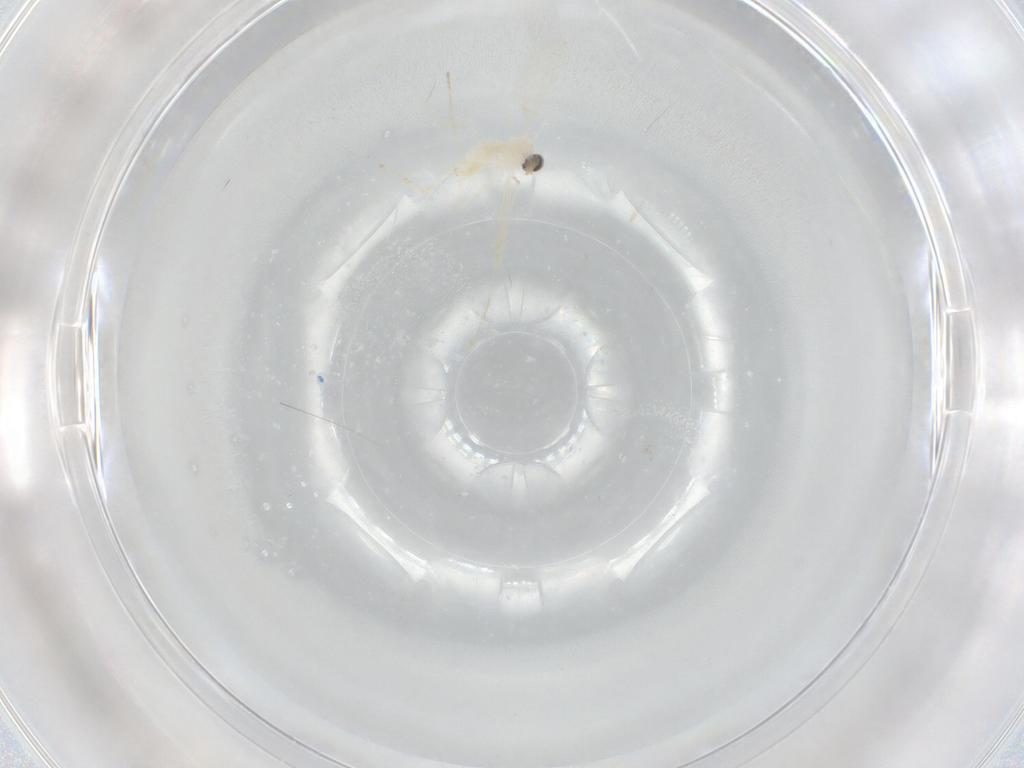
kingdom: Animalia
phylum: Arthropoda
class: Insecta
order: Diptera
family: Cecidomyiidae
